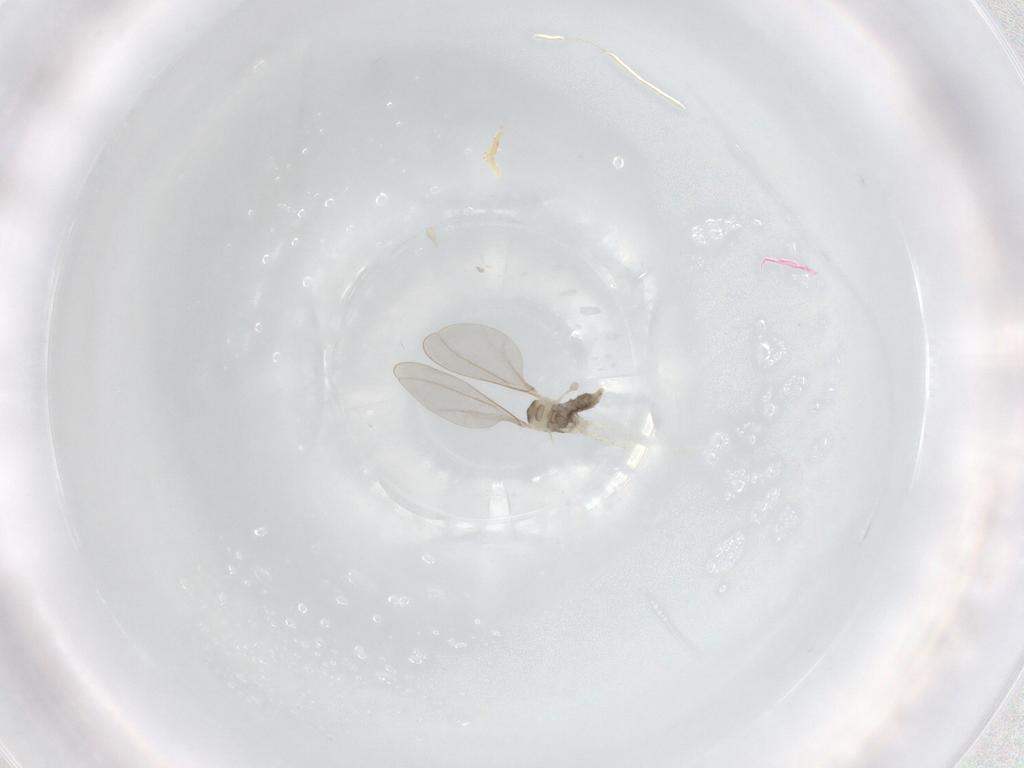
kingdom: Animalia
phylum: Arthropoda
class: Insecta
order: Diptera
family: Cecidomyiidae
